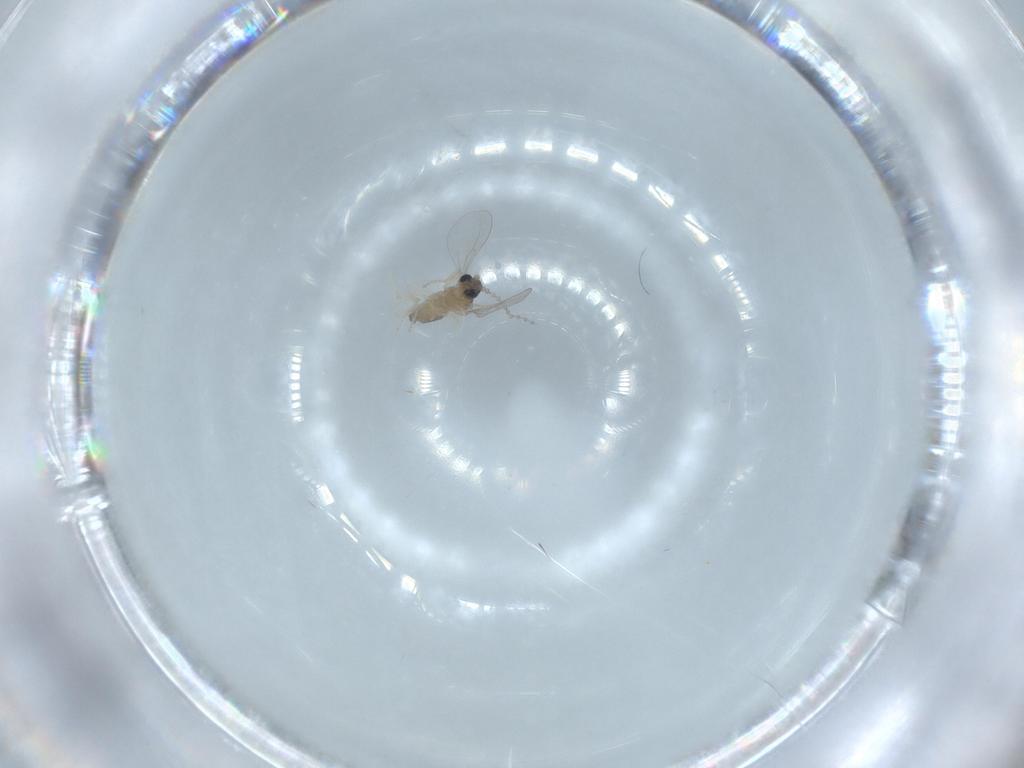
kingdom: Animalia
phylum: Arthropoda
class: Insecta
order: Diptera
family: Cecidomyiidae
